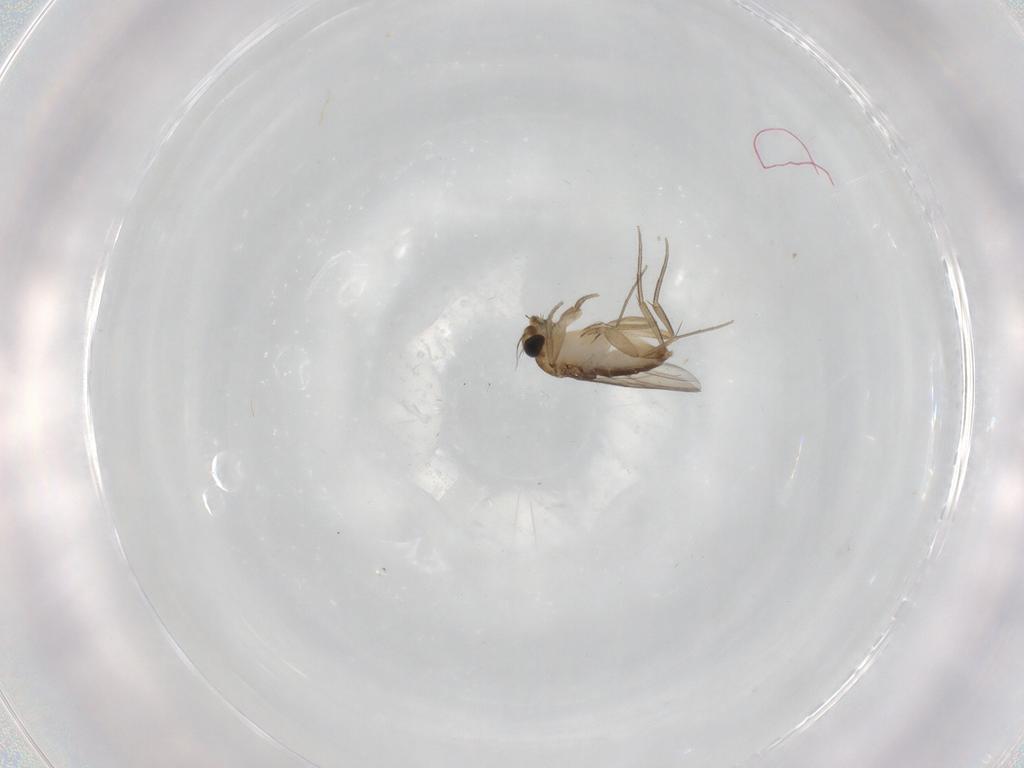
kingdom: Animalia
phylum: Arthropoda
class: Insecta
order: Diptera
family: Phoridae
